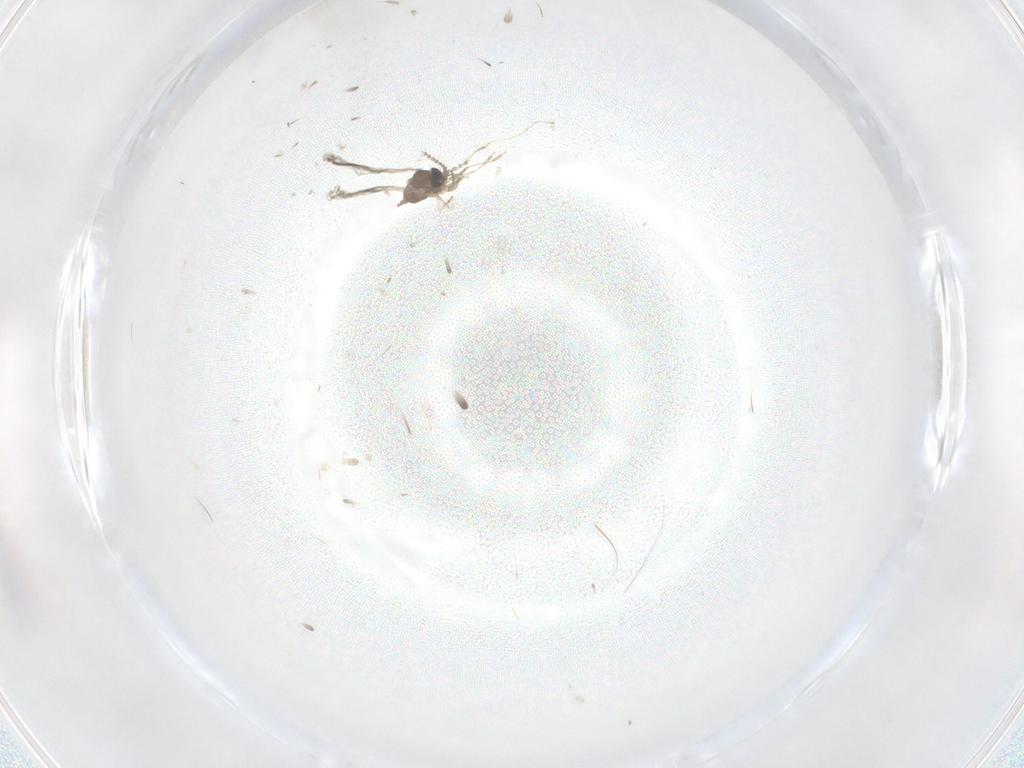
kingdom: Animalia
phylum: Arthropoda
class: Insecta
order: Diptera
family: Cecidomyiidae
